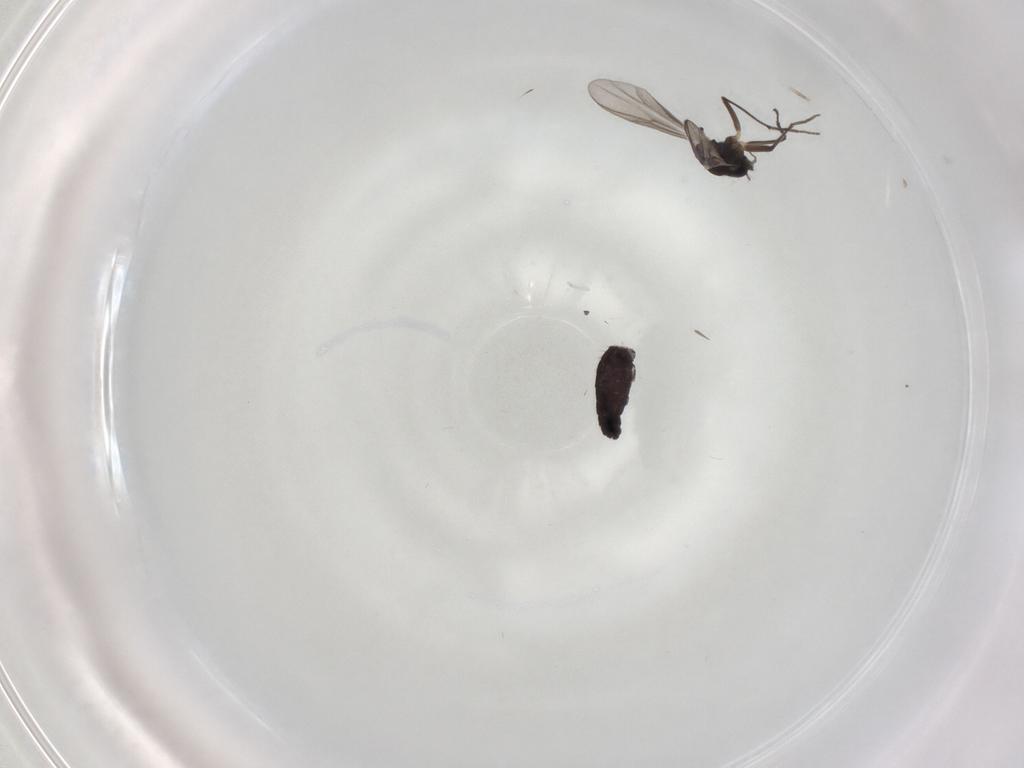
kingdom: Animalia
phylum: Arthropoda
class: Insecta
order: Diptera
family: Chironomidae
